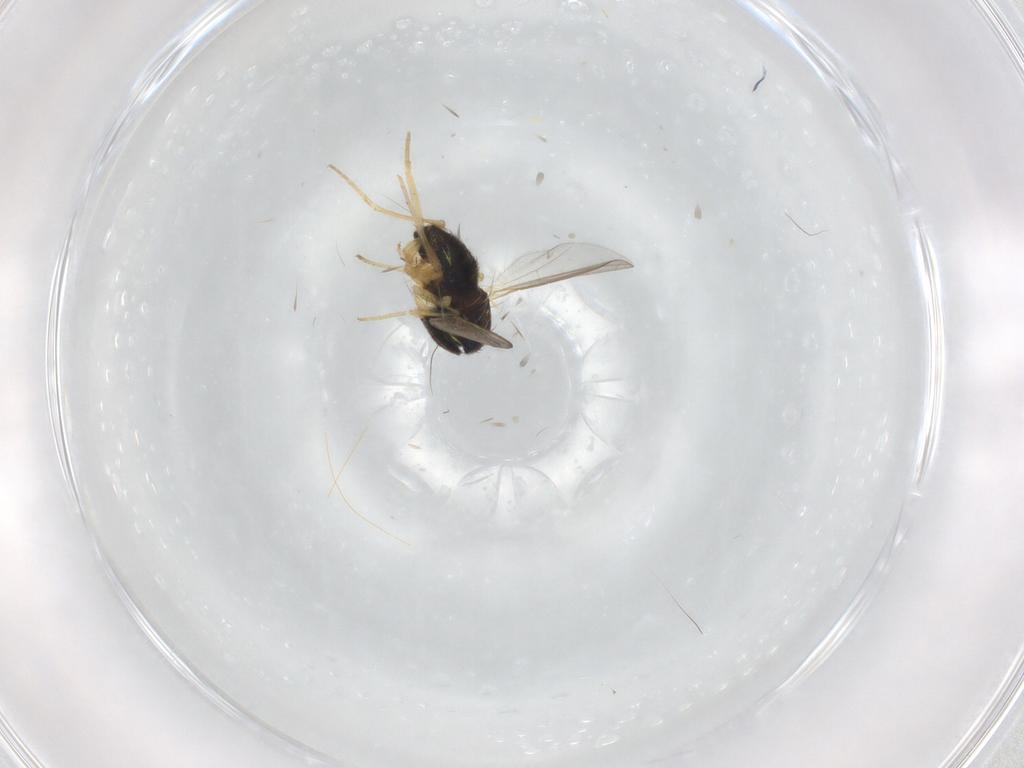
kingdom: Animalia
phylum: Arthropoda
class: Insecta
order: Diptera
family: Dolichopodidae
